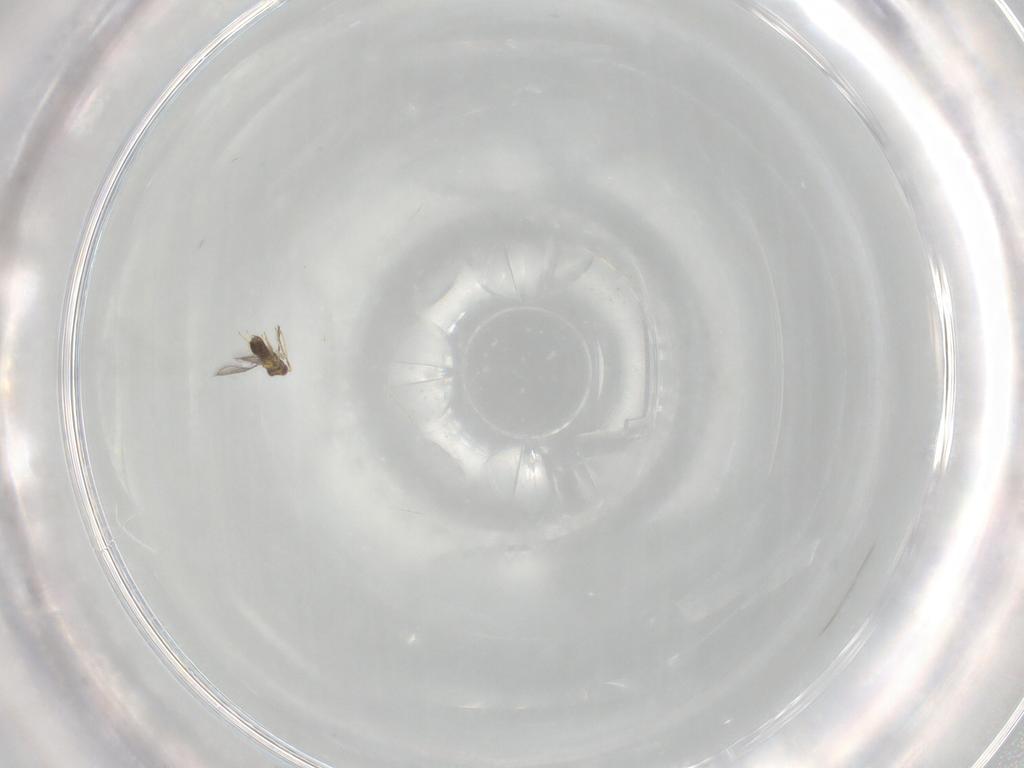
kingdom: Animalia
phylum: Arthropoda
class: Insecta
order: Hymenoptera
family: Aphelinidae
